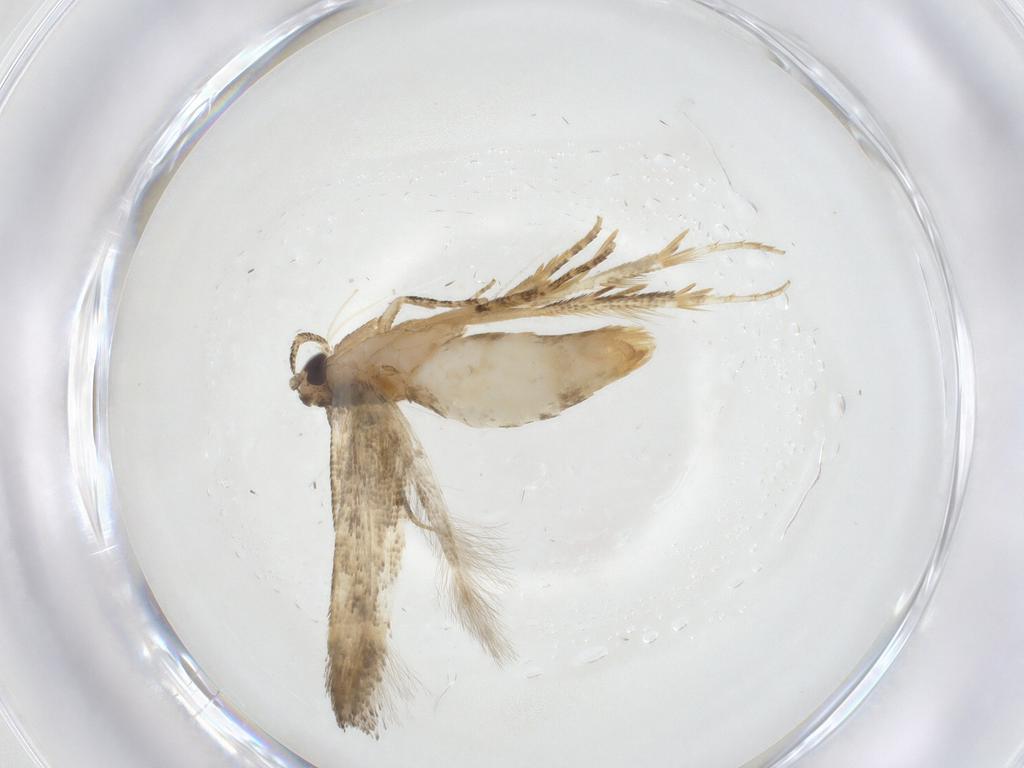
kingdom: Animalia
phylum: Arthropoda
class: Insecta
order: Lepidoptera
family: Gelechiidae
